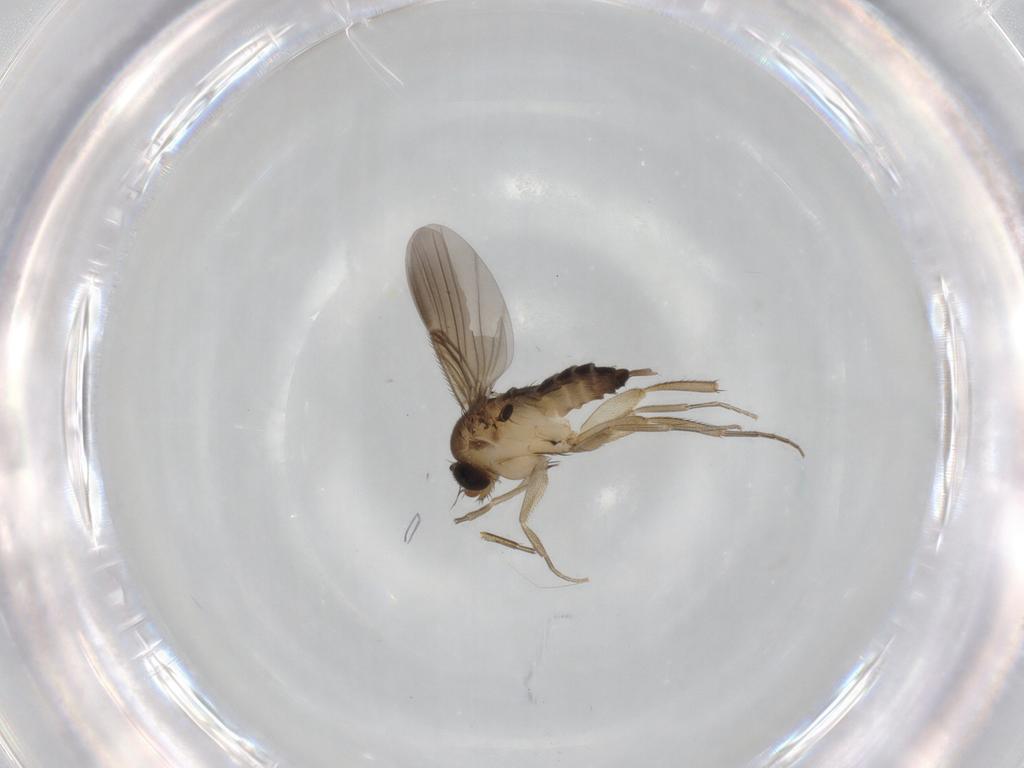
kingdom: Animalia
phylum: Arthropoda
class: Insecta
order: Diptera
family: Phoridae
